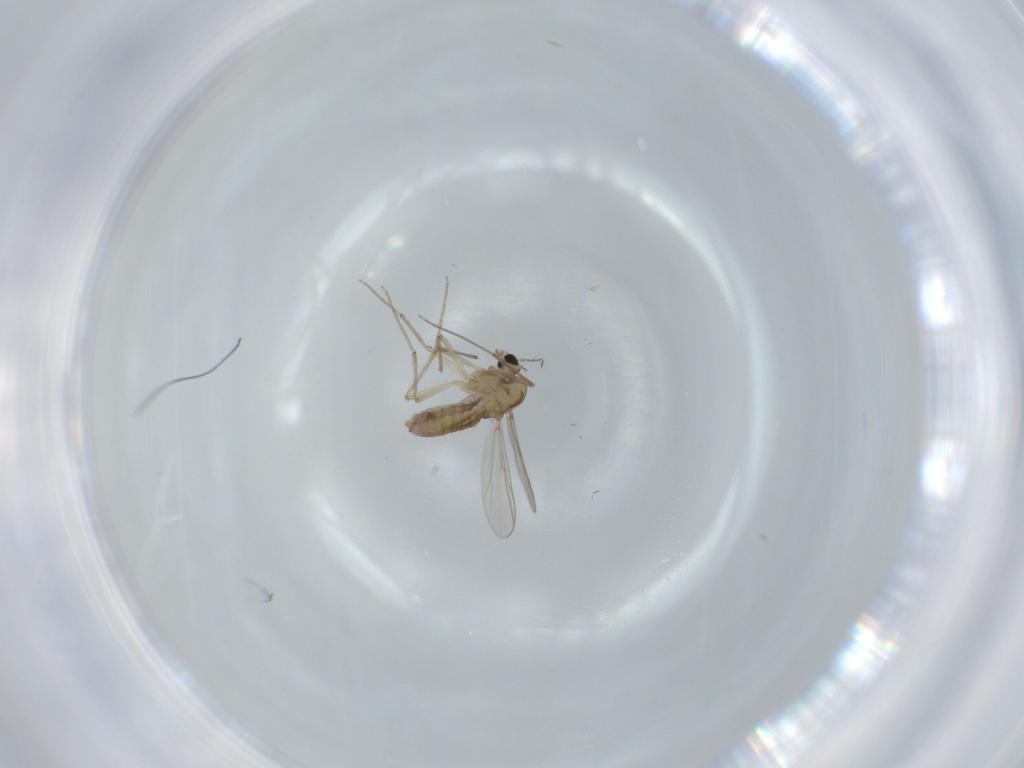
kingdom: Animalia
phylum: Arthropoda
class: Insecta
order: Diptera
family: Chironomidae
